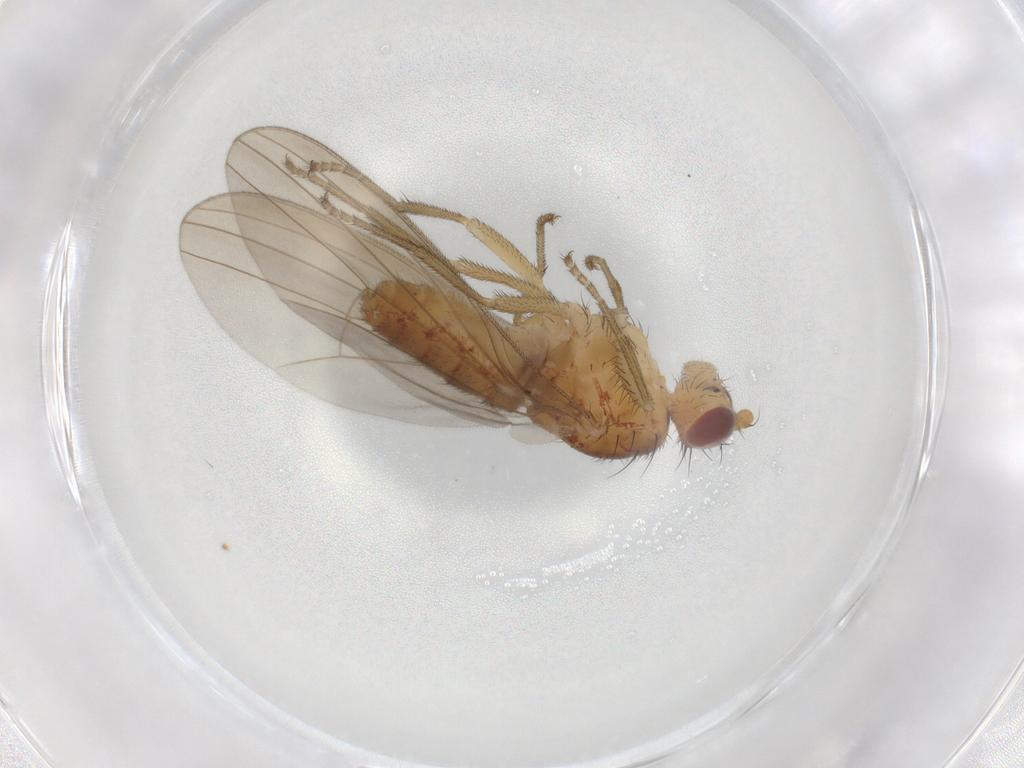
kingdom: Animalia
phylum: Arthropoda
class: Insecta
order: Diptera
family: Natalimyzidae
